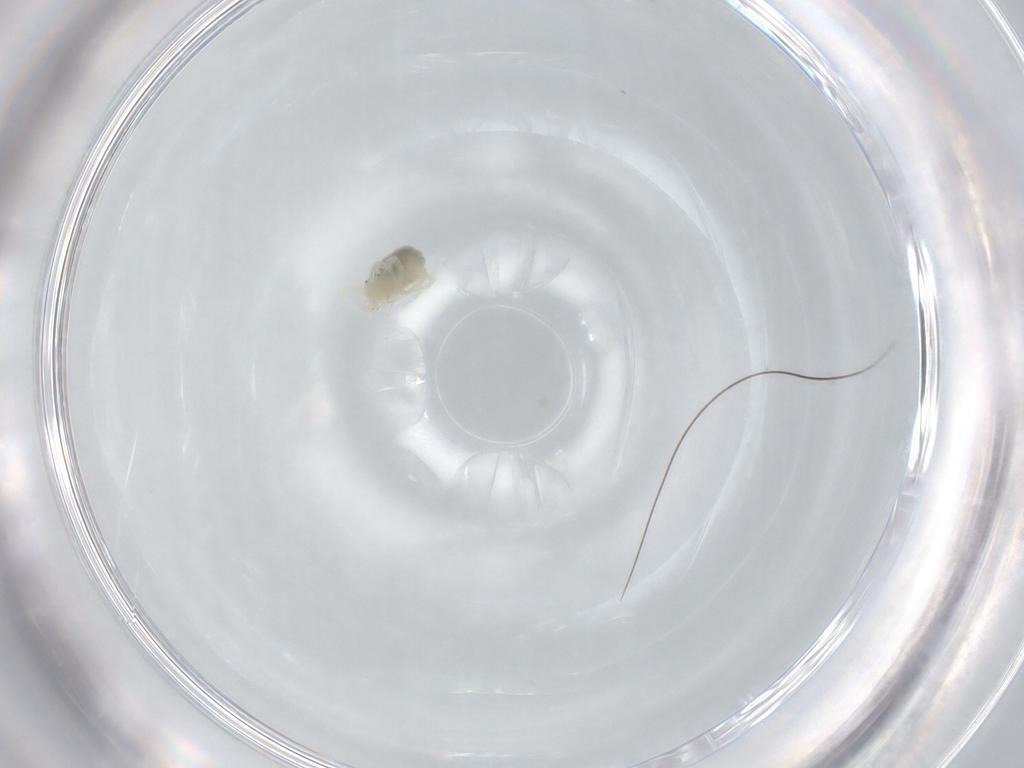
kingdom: Animalia
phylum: Arthropoda
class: Arachnida
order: Trombidiformes
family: Anystidae
